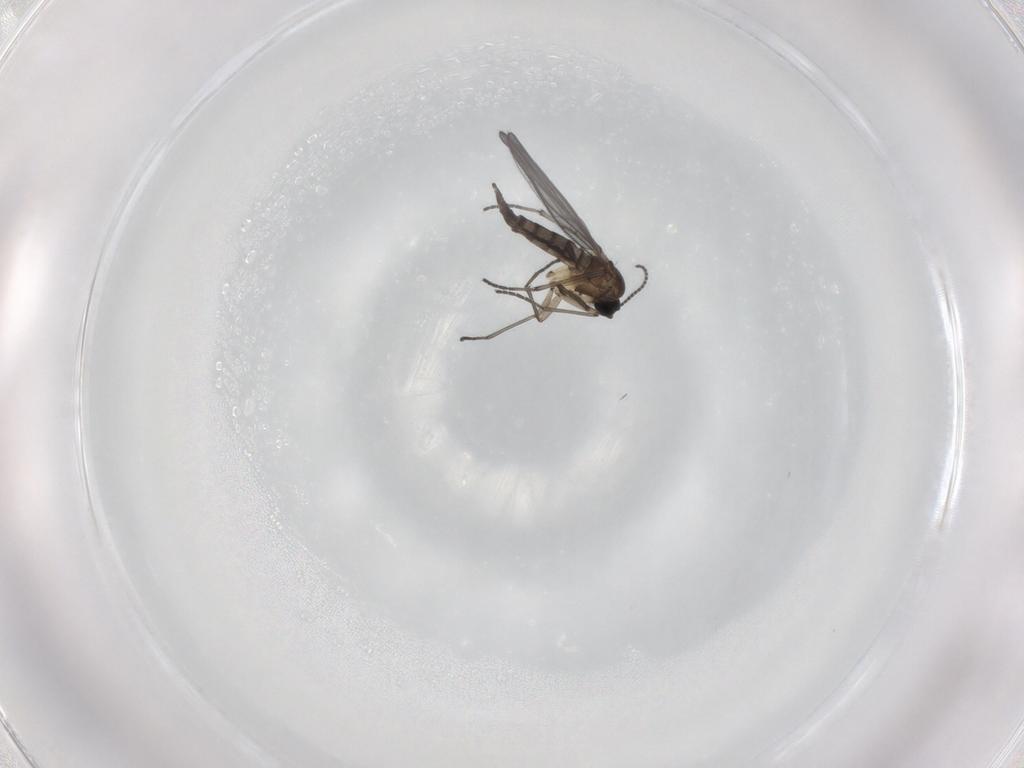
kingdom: Animalia
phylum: Arthropoda
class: Insecta
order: Diptera
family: Sciaridae
